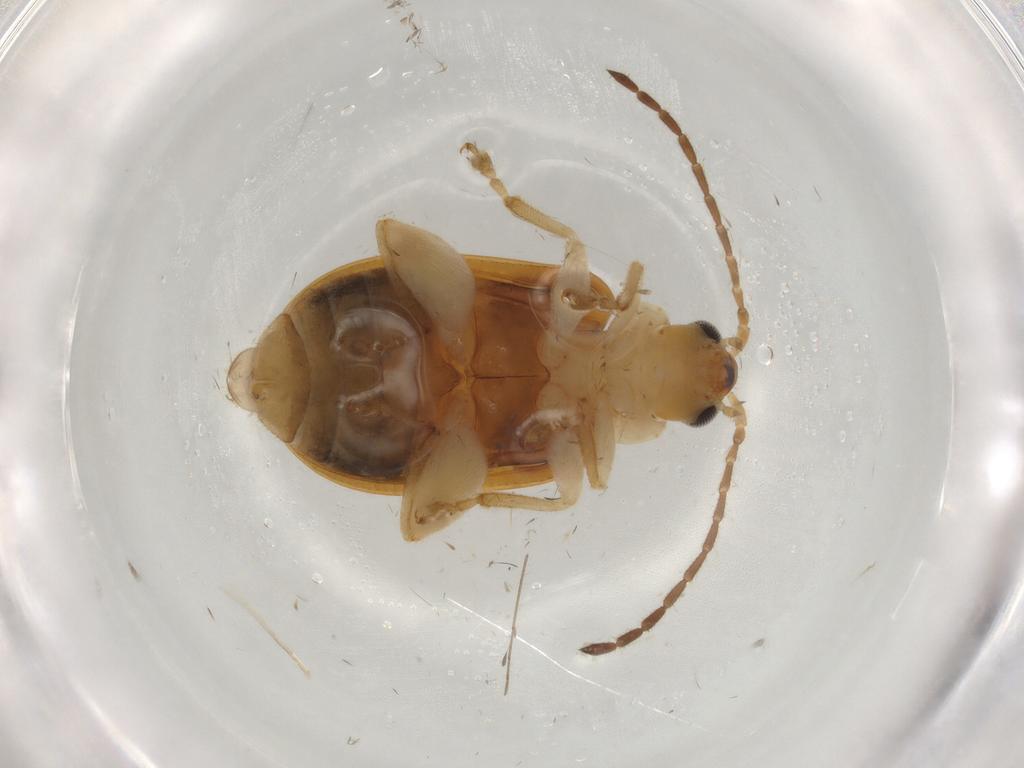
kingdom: Animalia
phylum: Arthropoda
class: Insecta
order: Coleoptera
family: Chrysomelidae
